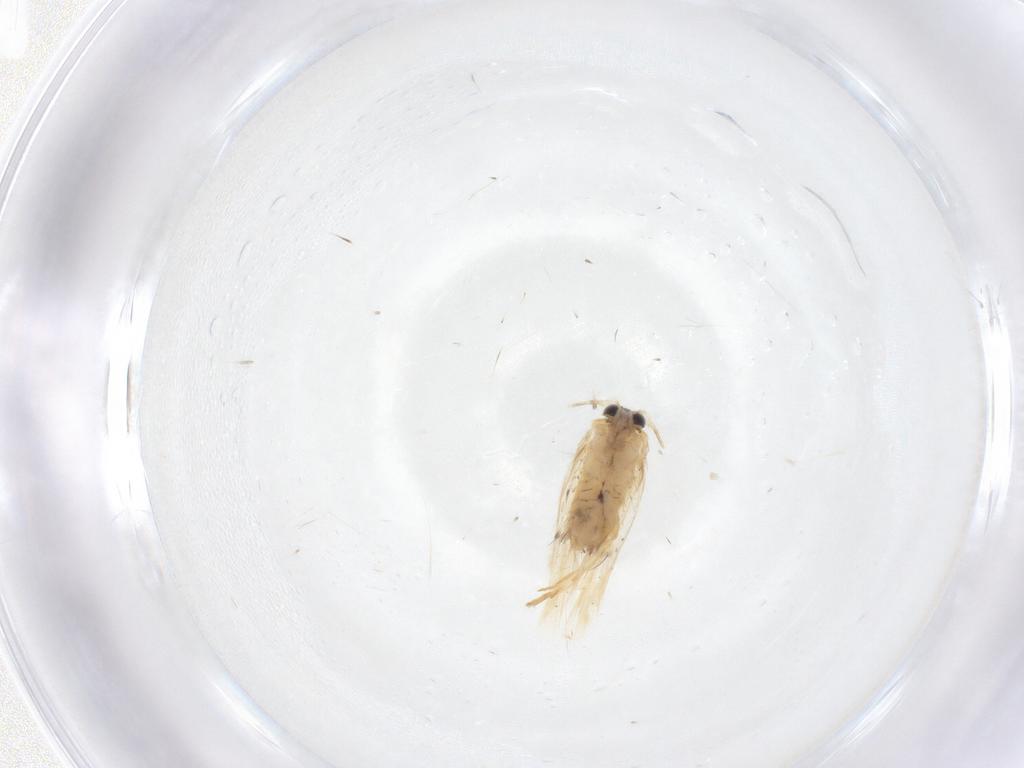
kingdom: Animalia
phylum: Arthropoda
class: Insecta
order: Lepidoptera
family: Nepticulidae
